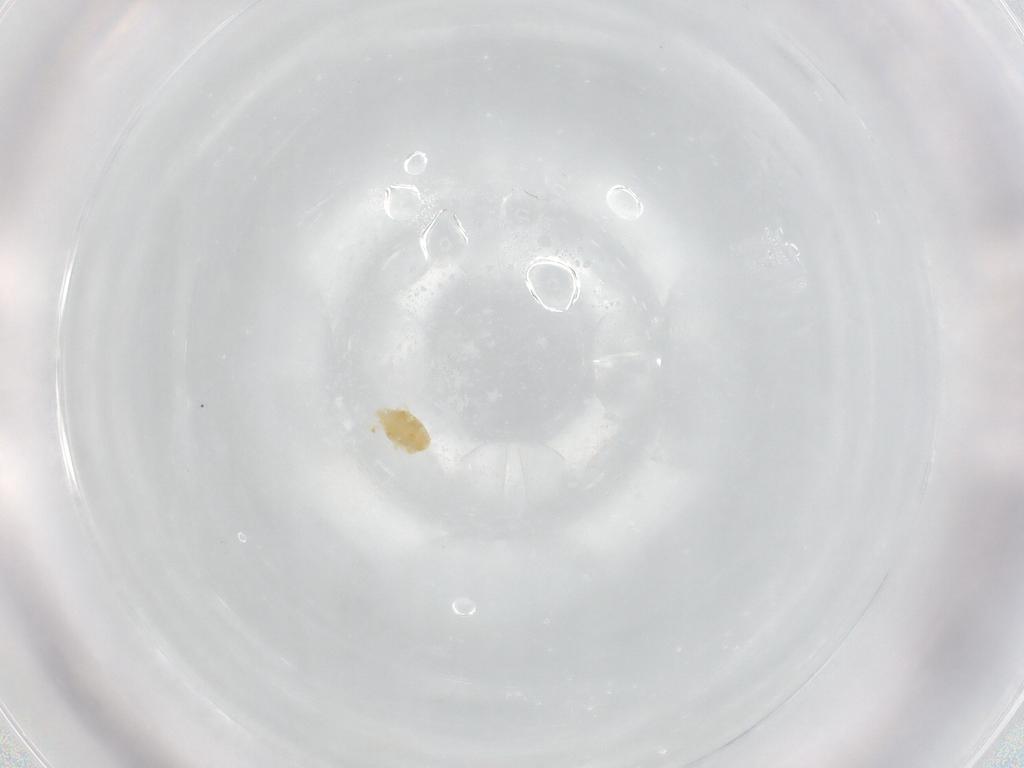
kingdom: Animalia
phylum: Arthropoda
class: Arachnida
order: Trombidiformes
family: Eupodidae
